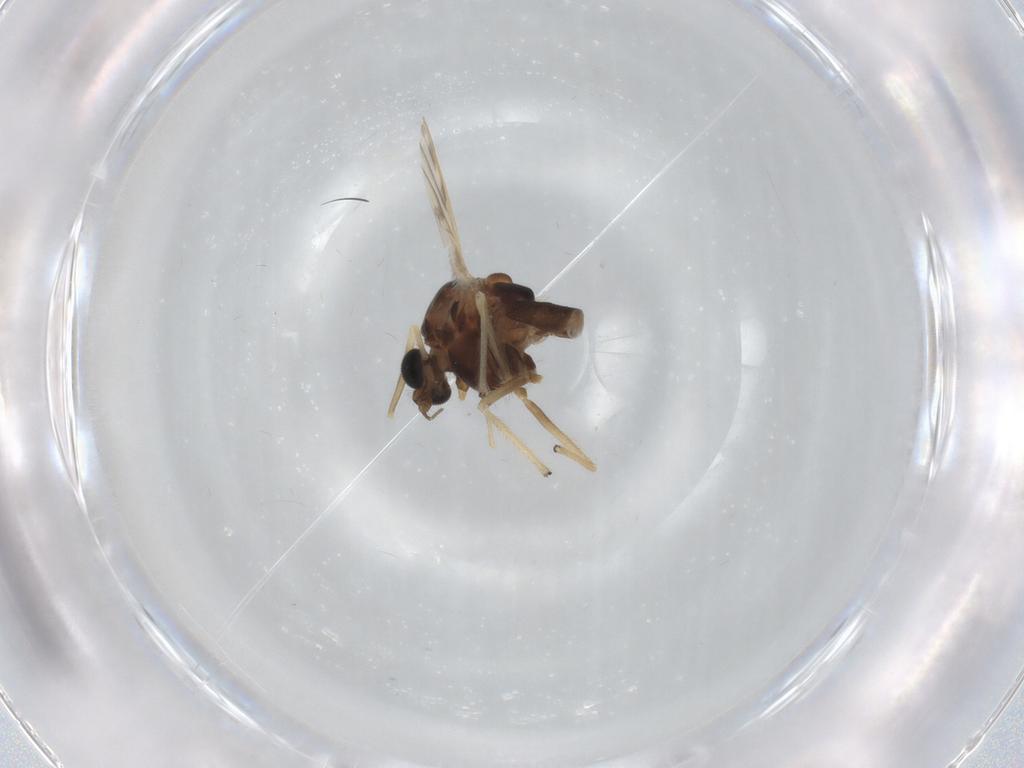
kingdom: Animalia
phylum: Arthropoda
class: Insecta
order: Diptera
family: Chironomidae
